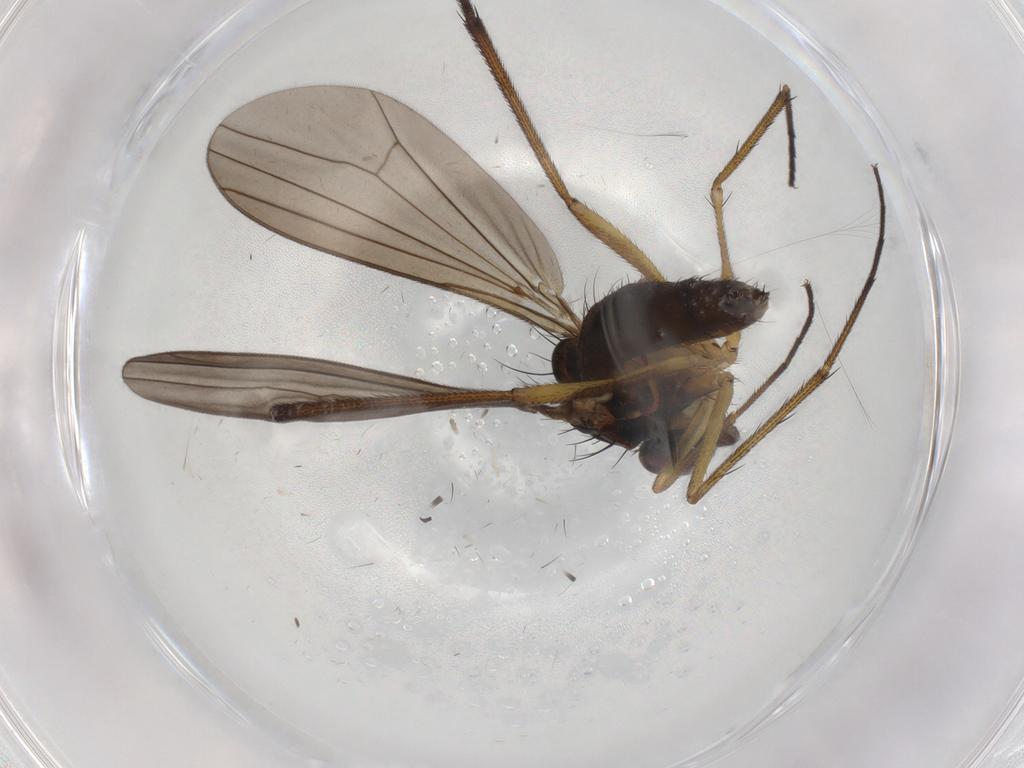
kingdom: Animalia
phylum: Arthropoda
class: Insecta
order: Diptera
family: Dolichopodidae
